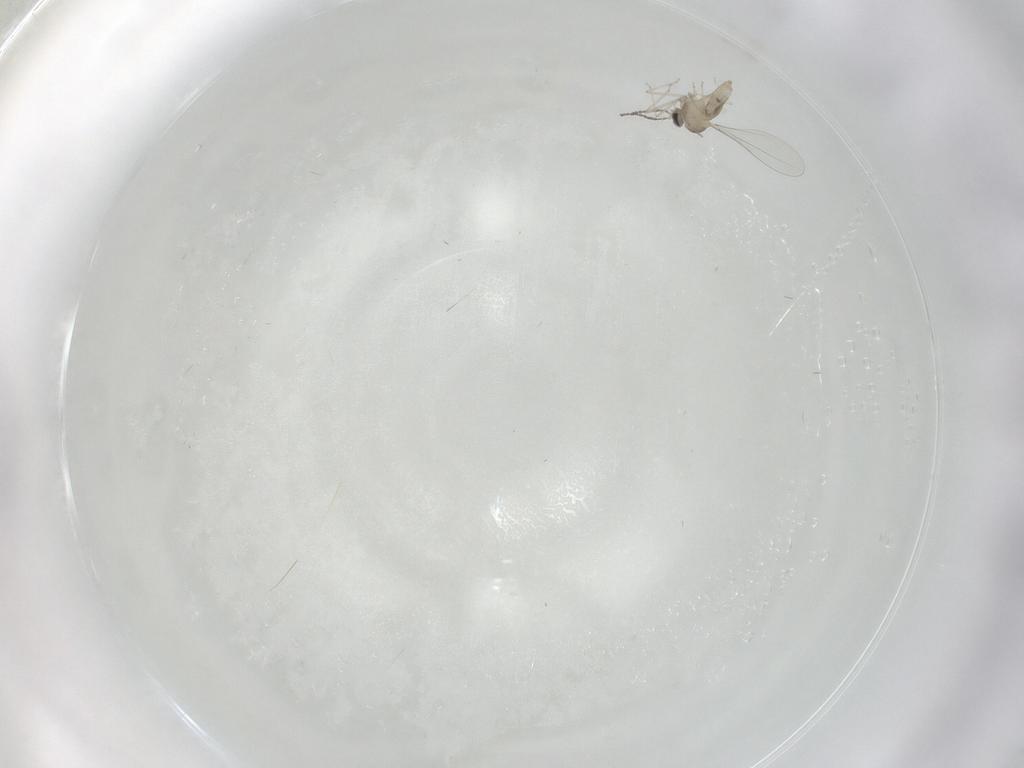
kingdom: Animalia
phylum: Arthropoda
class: Insecta
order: Diptera
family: Cecidomyiidae
